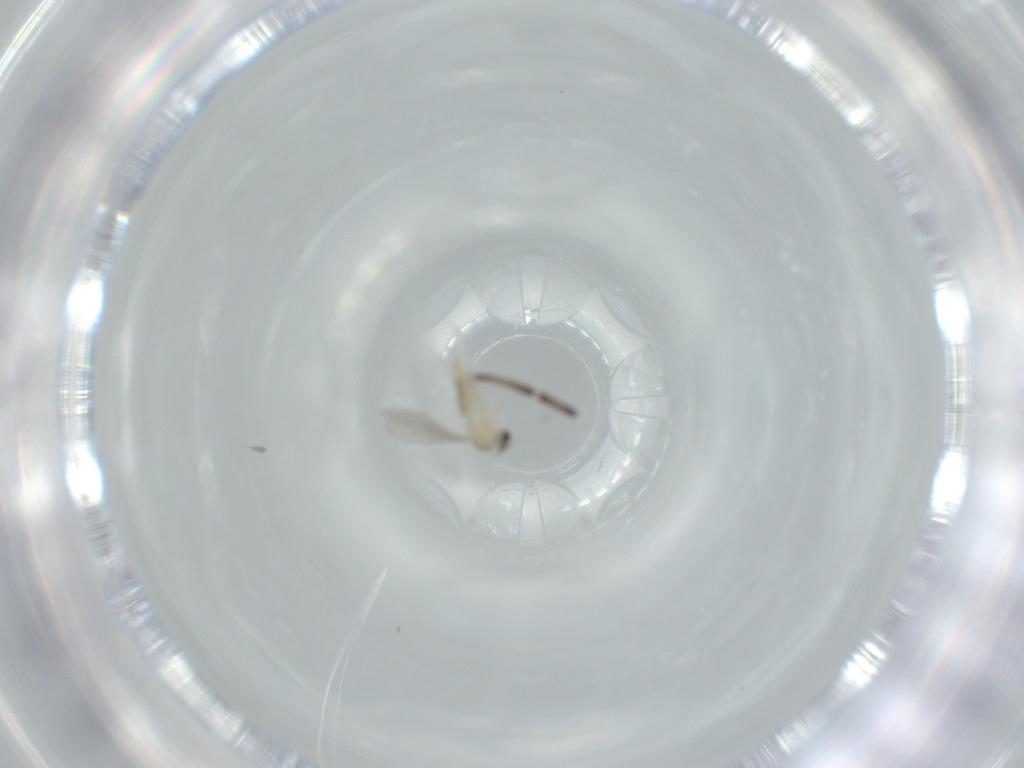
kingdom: Animalia
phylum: Arthropoda
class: Insecta
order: Diptera
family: Cecidomyiidae
